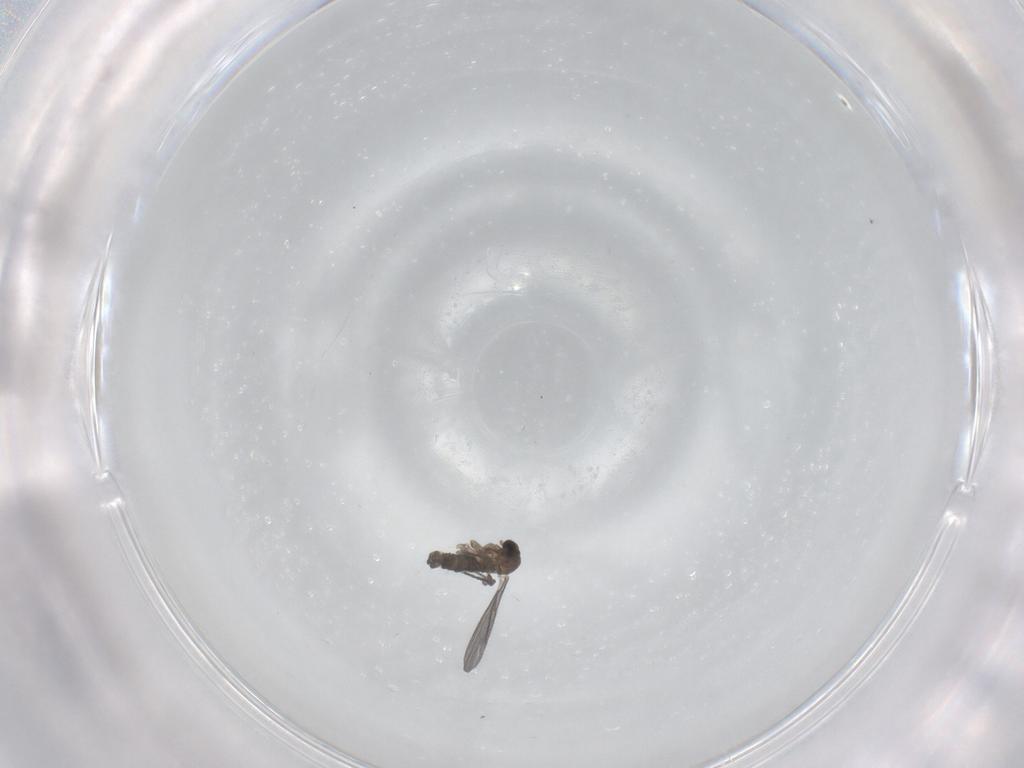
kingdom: Animalia
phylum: Arthropoda
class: Insecta
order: Diptera
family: Sciaridae
